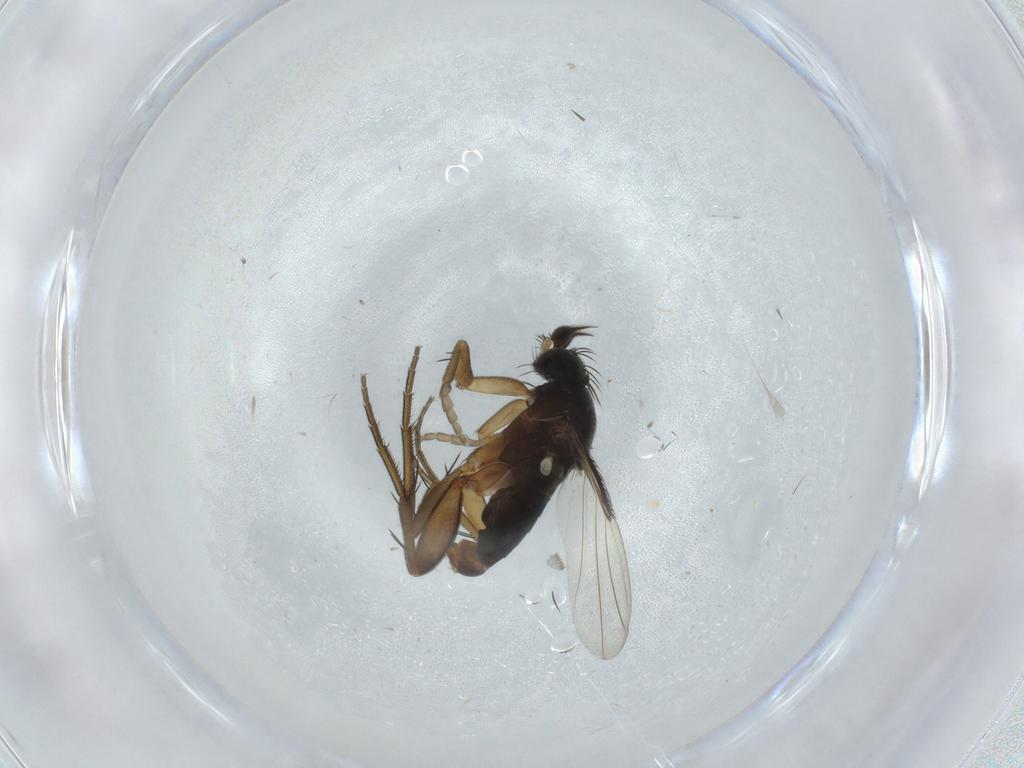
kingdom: Animalia
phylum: Arthropoda
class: Insecta
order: Diptera
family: Phoridae
